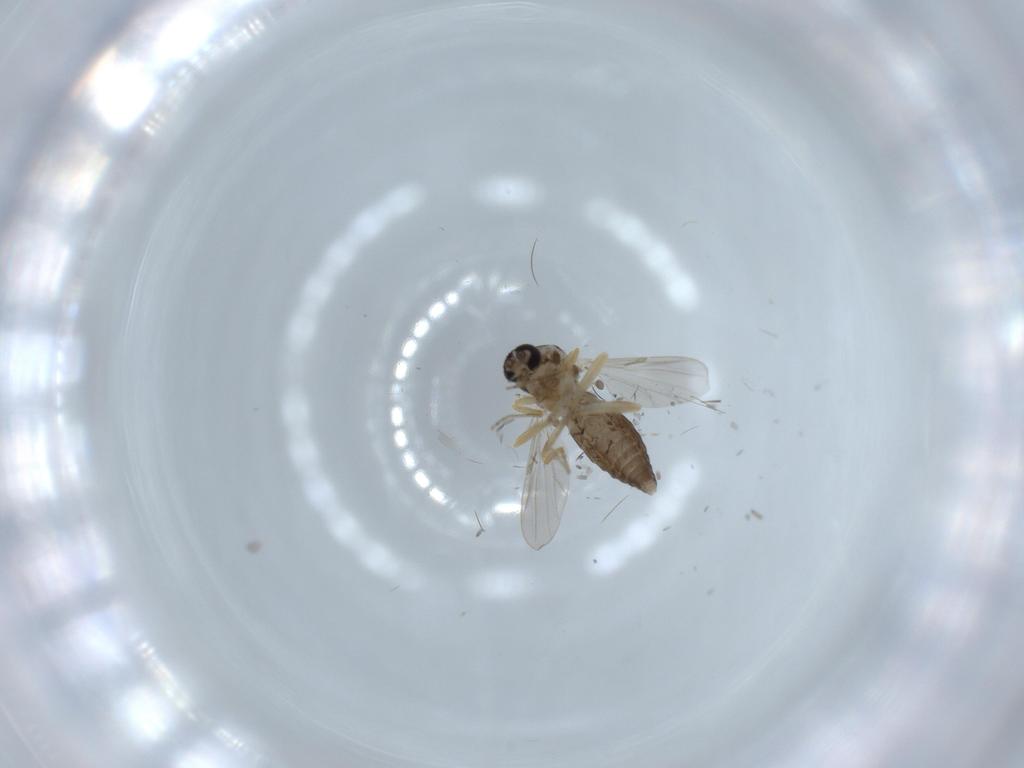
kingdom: Animalia
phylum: Arthropoda
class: Insecta
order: Diptera
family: Ceratopogonidae
